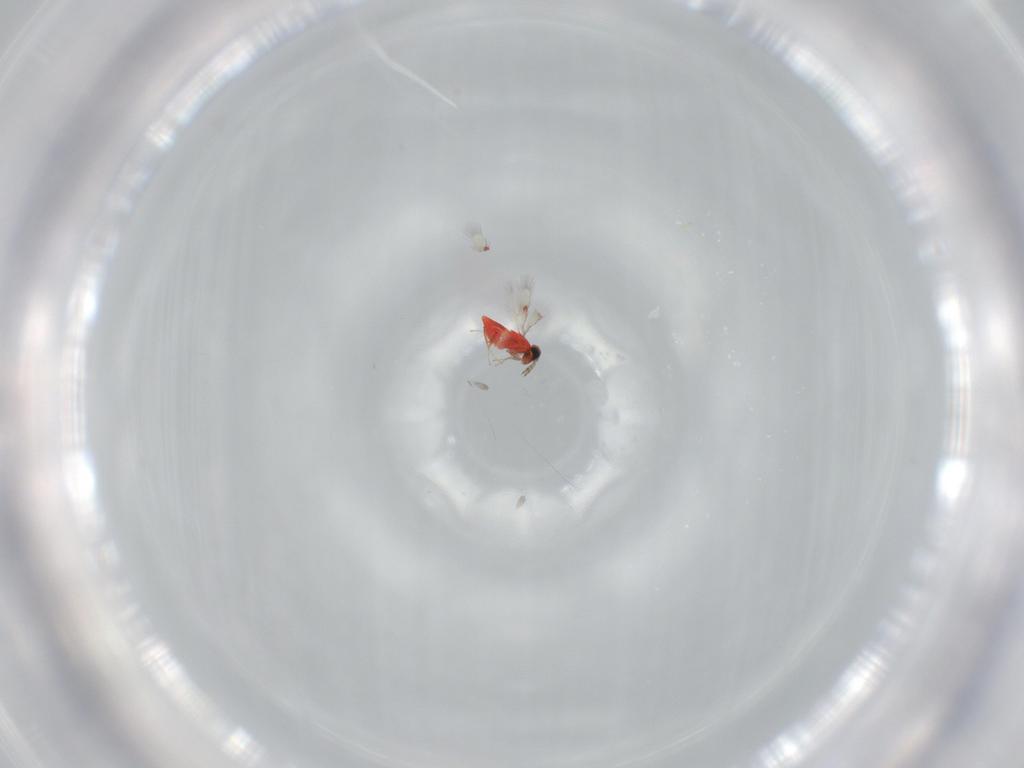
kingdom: Animalia
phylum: Arthropoda
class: Insecta
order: Hymenoptera
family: Trichogrammatidae
